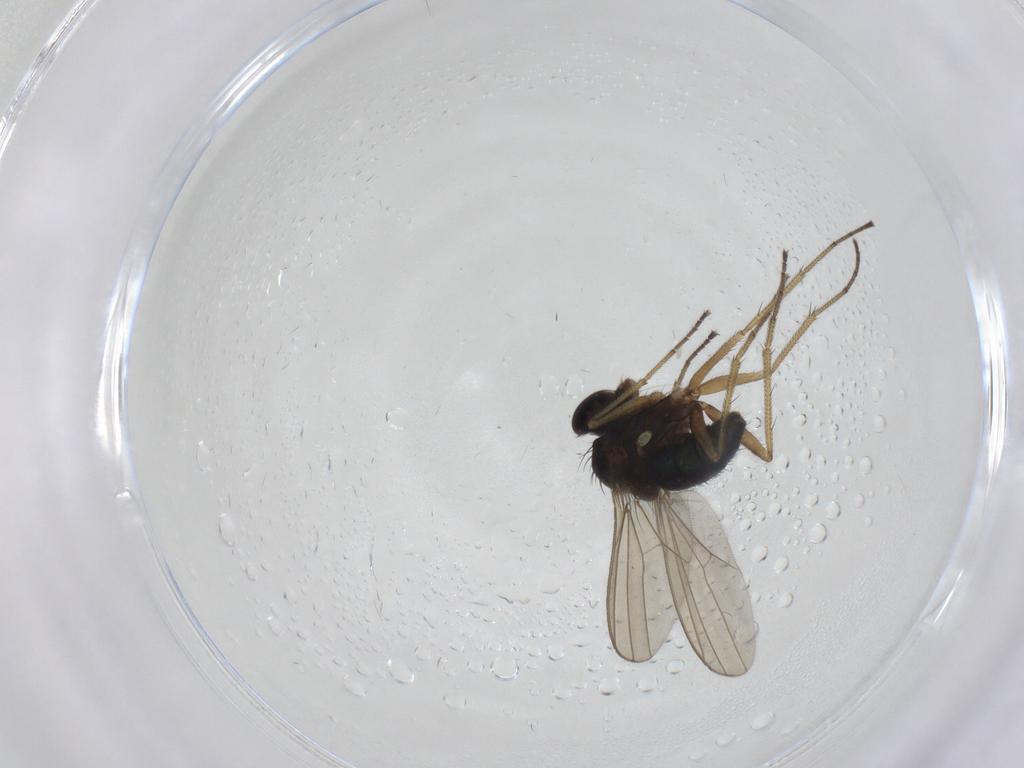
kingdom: Animalia
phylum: Arthropoda
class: Insecta
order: Diptera
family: Dolichopodidae
